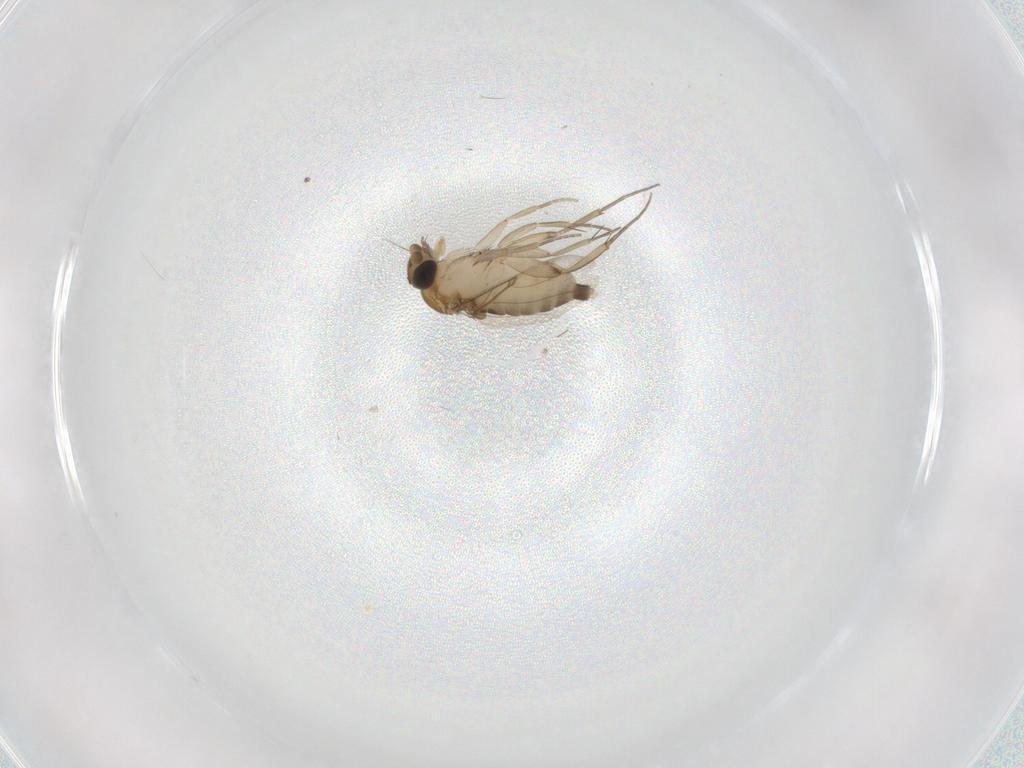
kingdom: Animalia
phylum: Arthropoda
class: Insecta
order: Diptera
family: Phoridae
